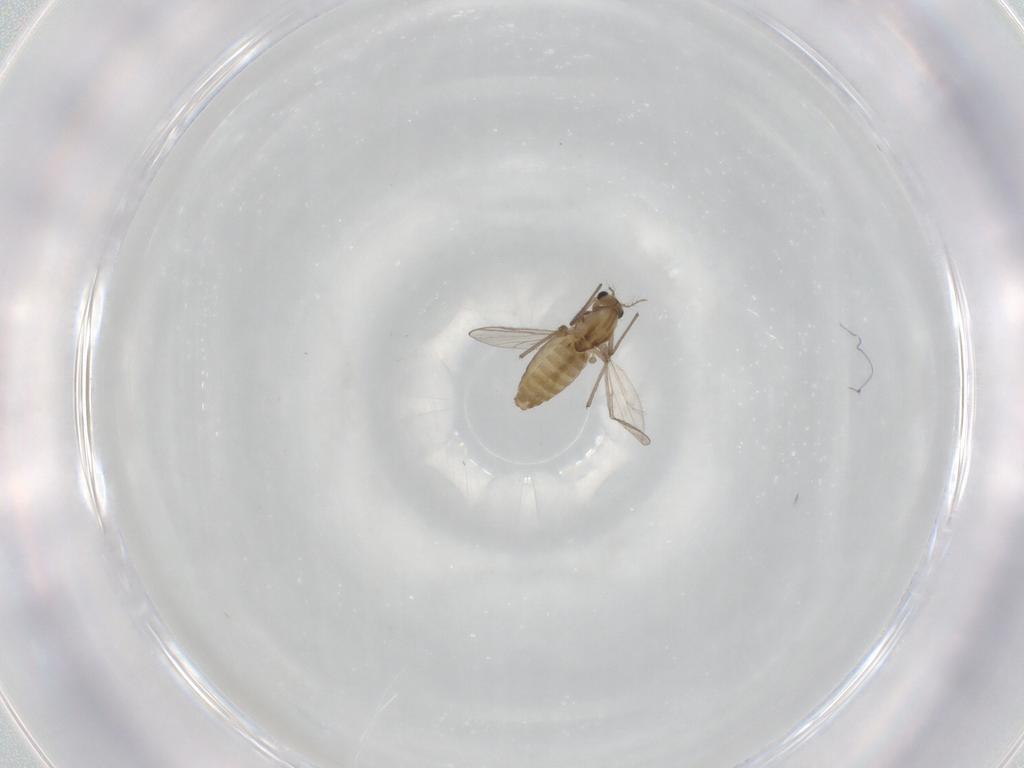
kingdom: Animalia
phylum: Arthropoda
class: Insecta
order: Diptera
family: Chironomidae
